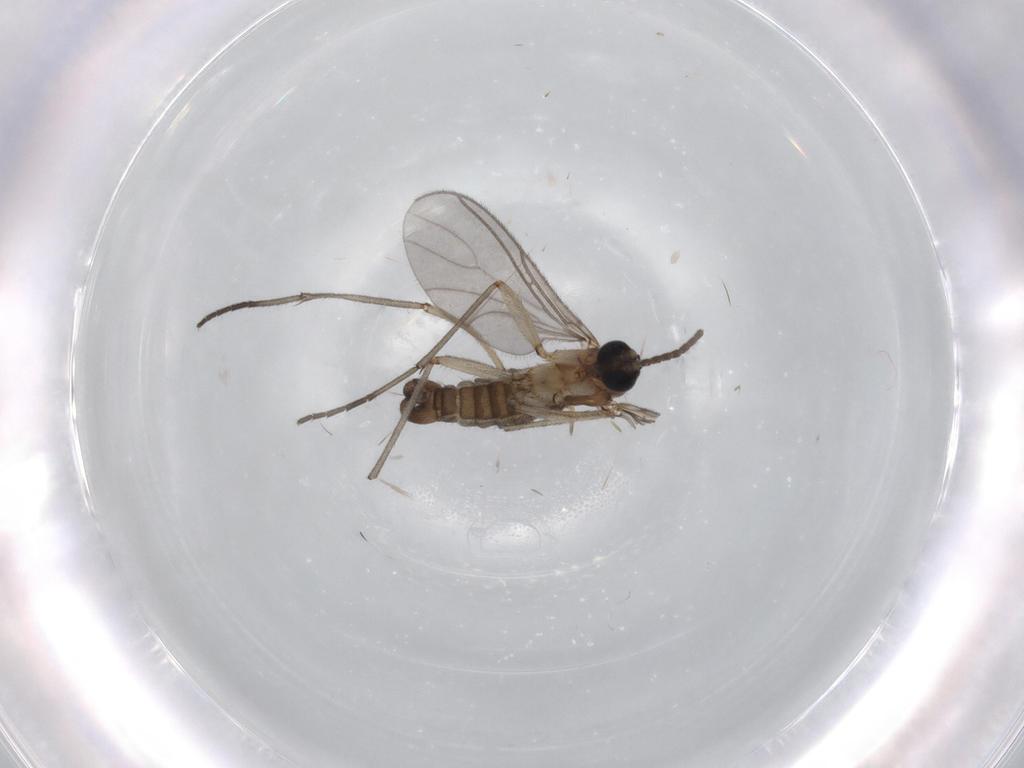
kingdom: Animalia
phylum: Arthropoda
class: Insecta
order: Diptera
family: Sciaridae
